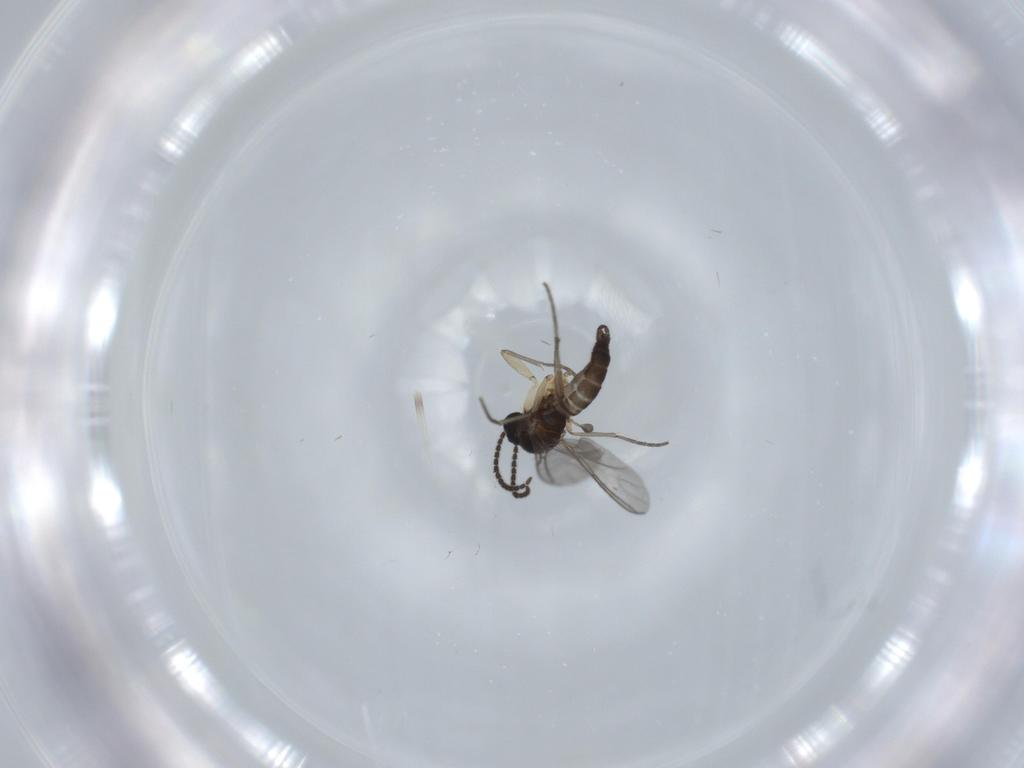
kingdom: Animalia
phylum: Arthropoda
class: Insecta
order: Diptera
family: Sciaridae
